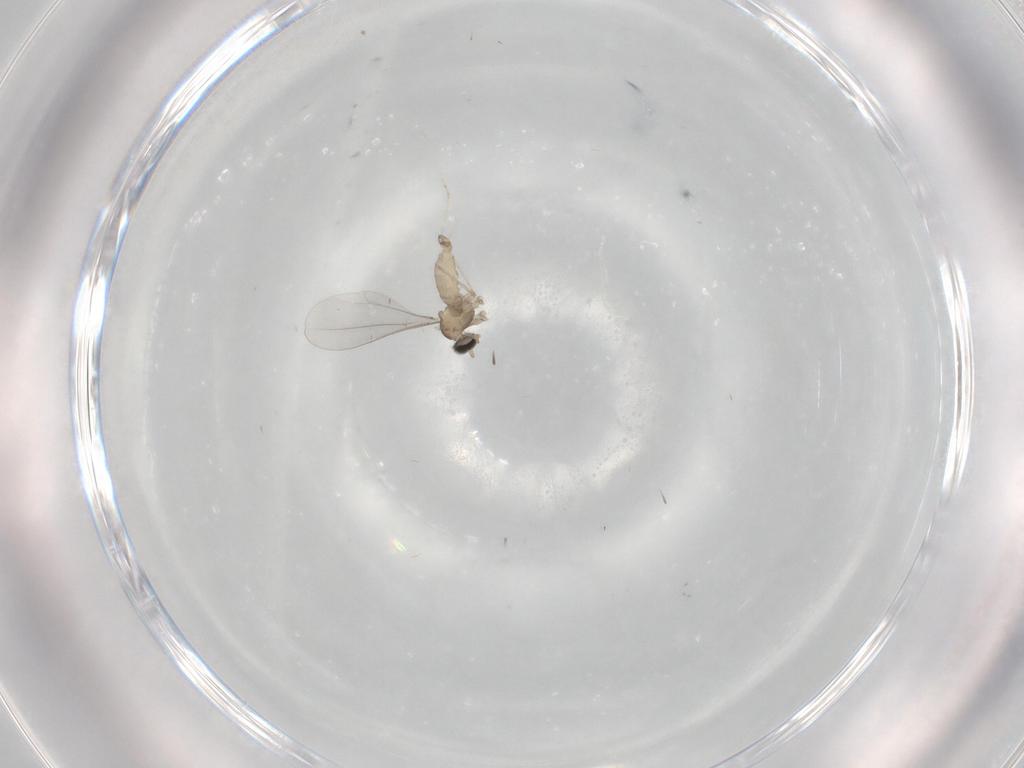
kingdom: Animalia
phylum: Arthropoda
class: Insecta
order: Diptera
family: Cecidomyiidae
